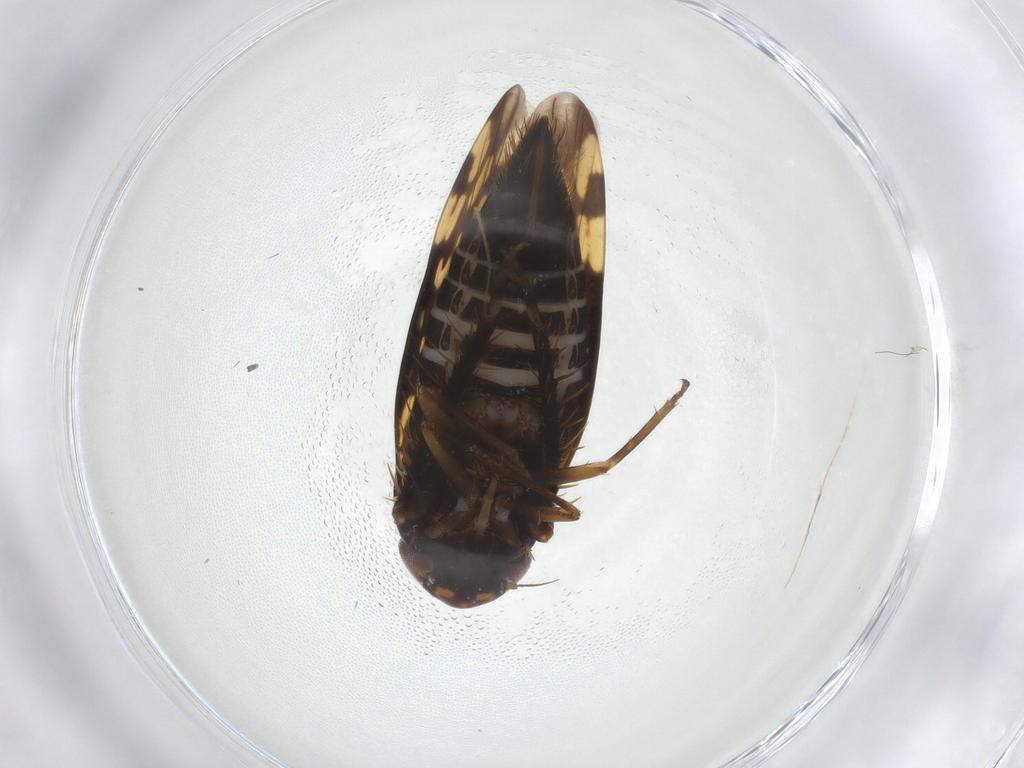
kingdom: Animalia
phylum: Arthropoda
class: Insecta
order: Hemiptera
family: Cicadellidae
